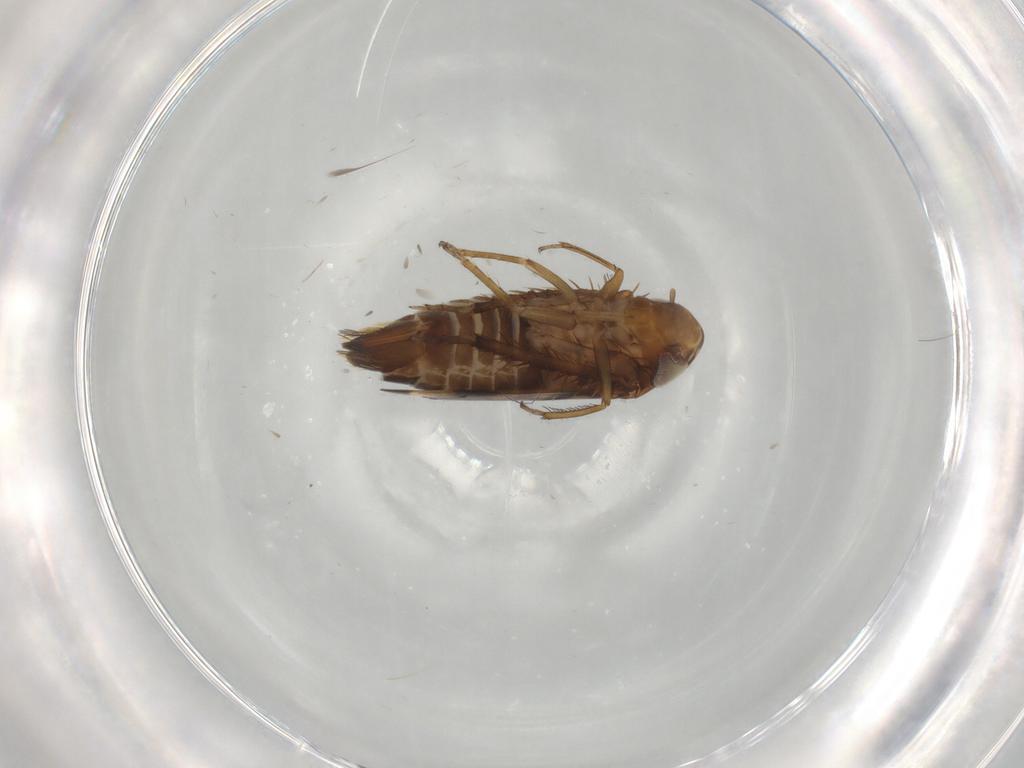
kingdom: Animalia
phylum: Arthropoda
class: Insecta
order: Hemiptera
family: Cicadellidae
